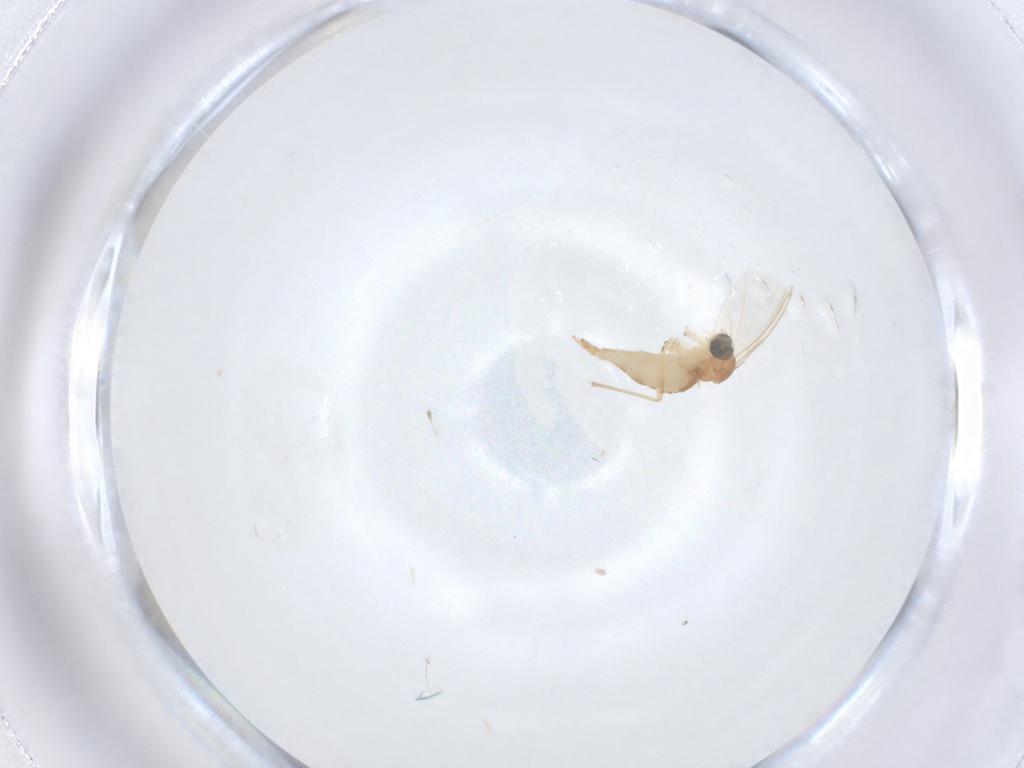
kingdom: Animalia
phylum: Arthropoda
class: Insecta
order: Diptera
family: Sciaridae
